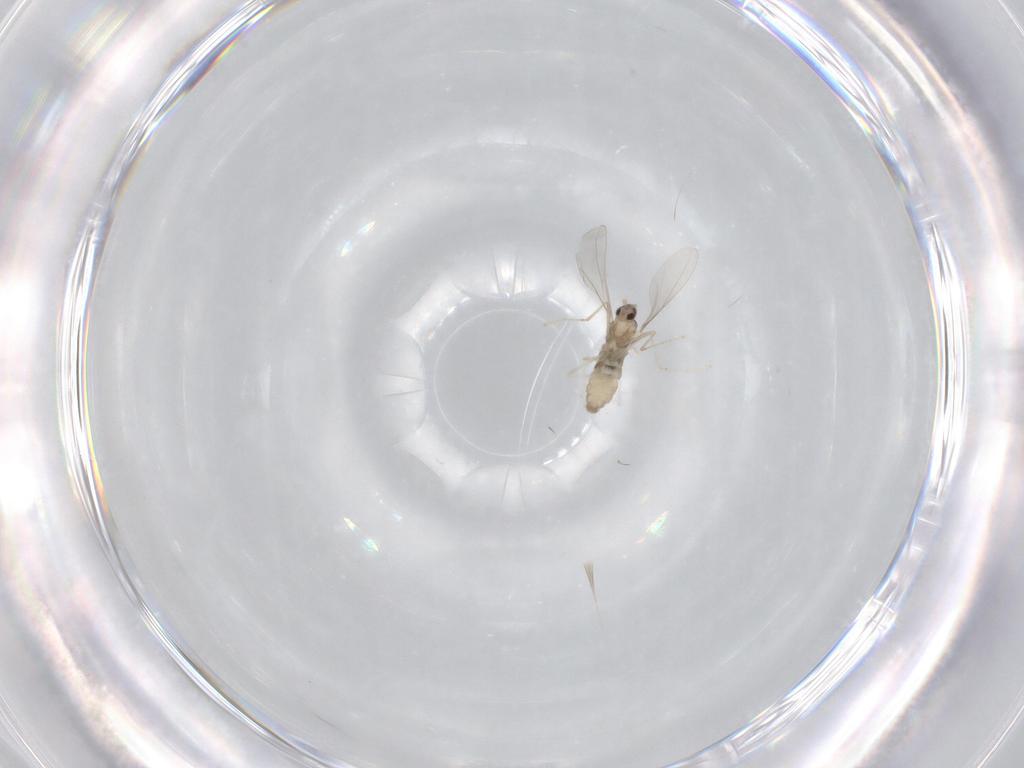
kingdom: Animalia
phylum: Arthropoda
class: Insecta
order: Diptera
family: Cecidomyiidae
